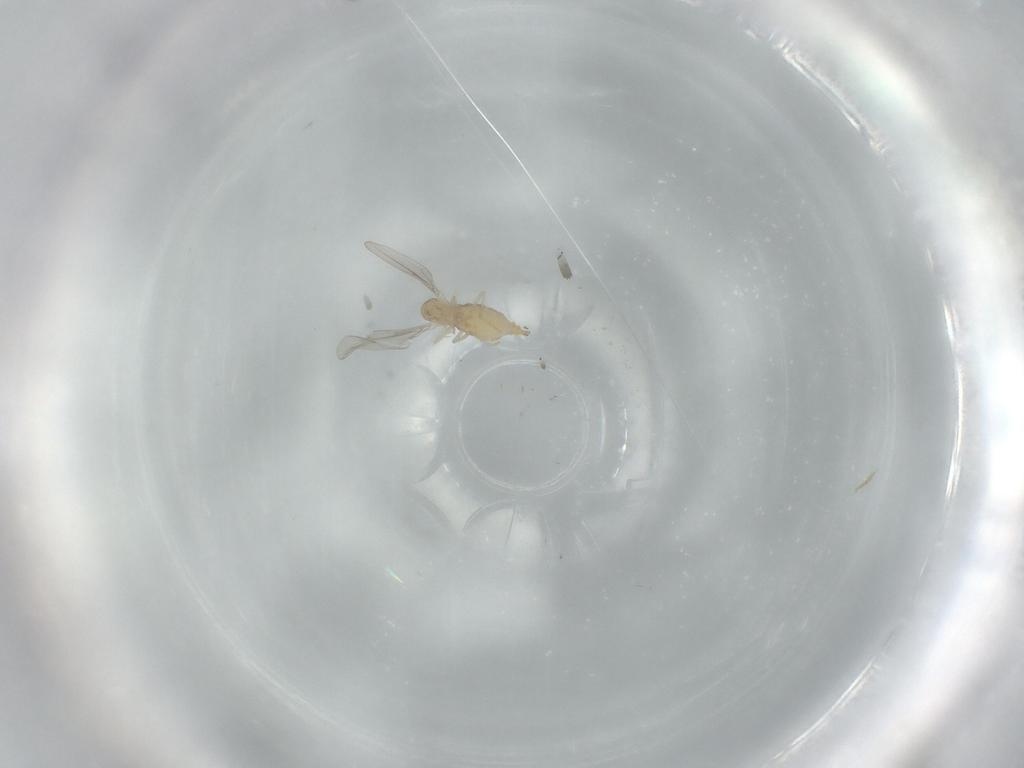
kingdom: Animalia
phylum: Arthropoda
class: Insecta
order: Diptera
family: Cecidomyiidae
